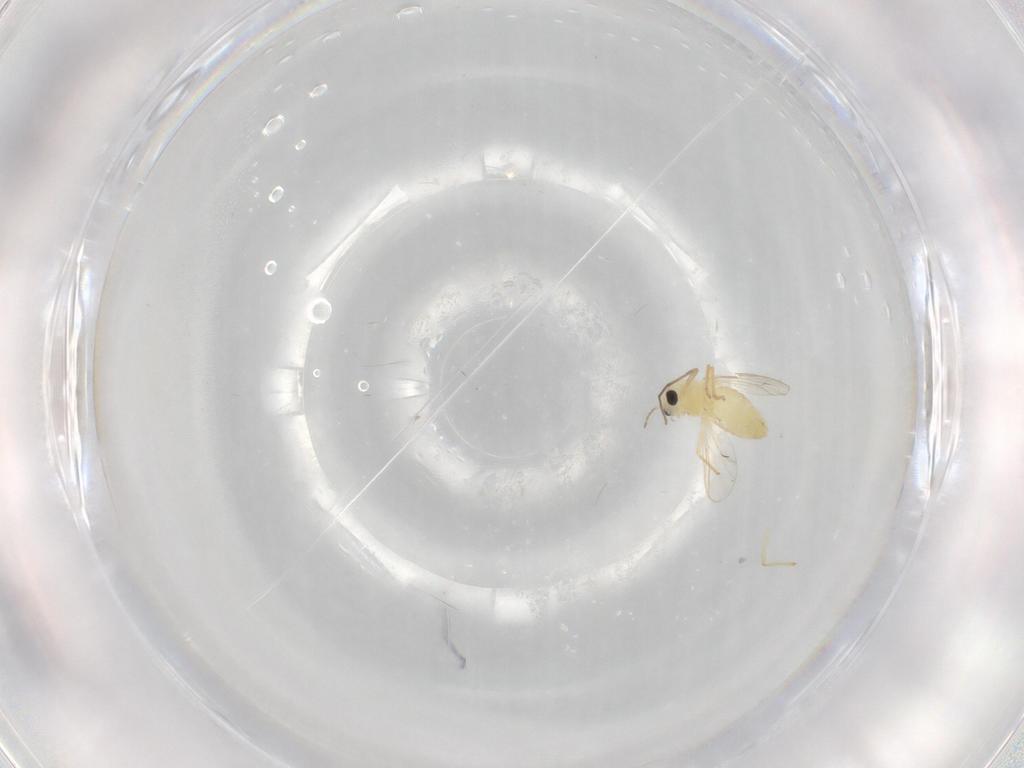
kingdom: Animalia
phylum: Arthropoda
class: Insecta
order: Diptera
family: Chironomidae
